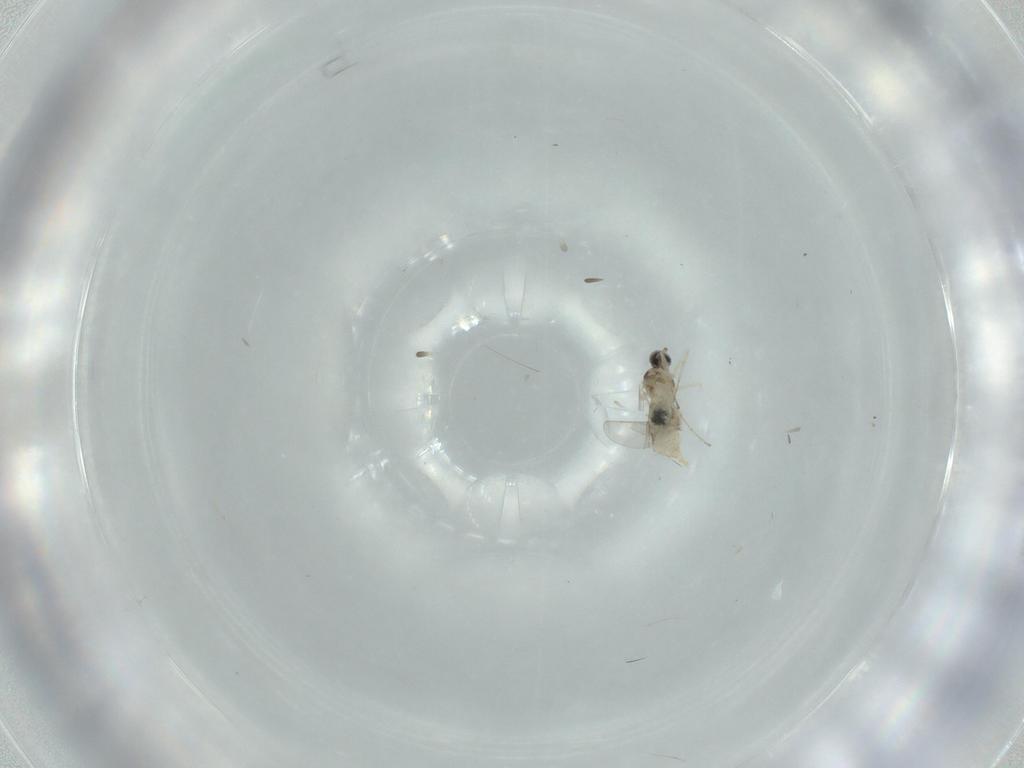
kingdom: Animalia
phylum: Arthropoda
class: Insecta
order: Diptera
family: Cecidomyiidae
